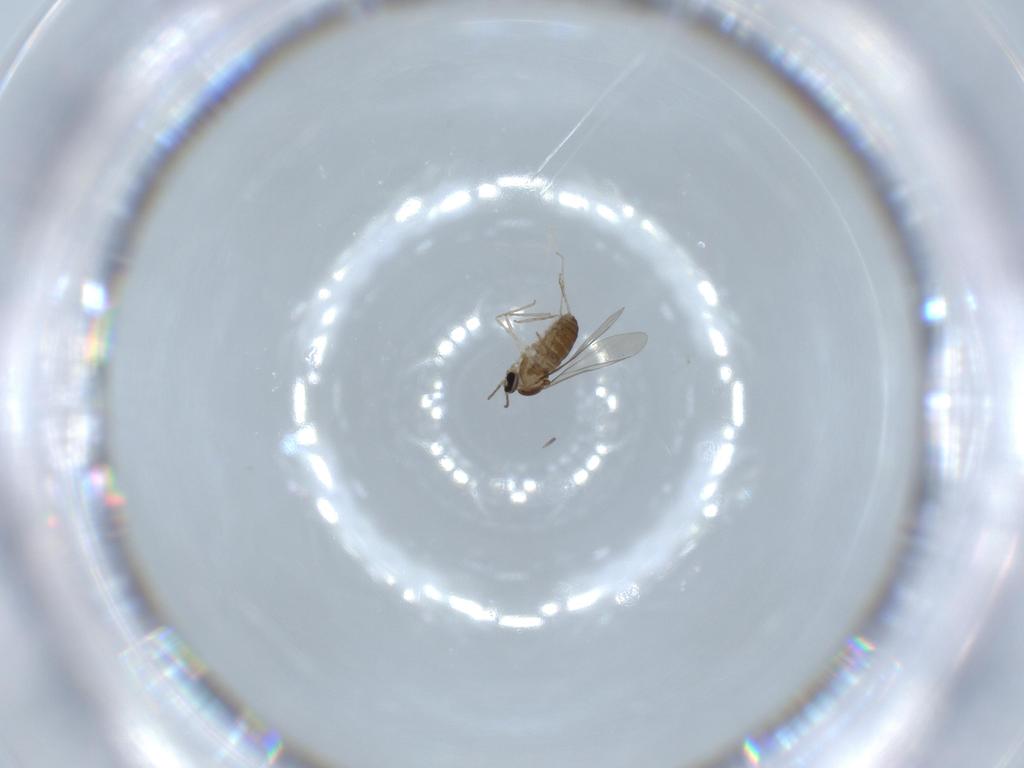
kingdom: Animalia
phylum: Arthropoda
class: Insecta
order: Diptera
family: Cecidomyiidae
